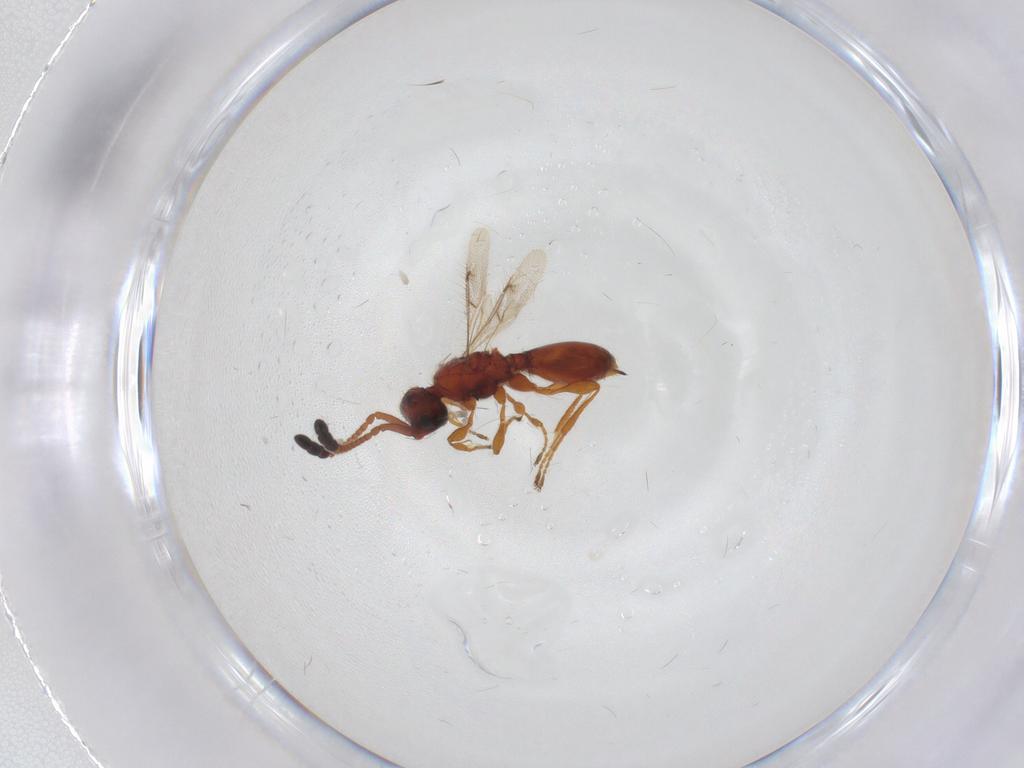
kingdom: Animalia
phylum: Arthropoda
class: Insecta
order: Hymenoptera
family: Diapriidae
